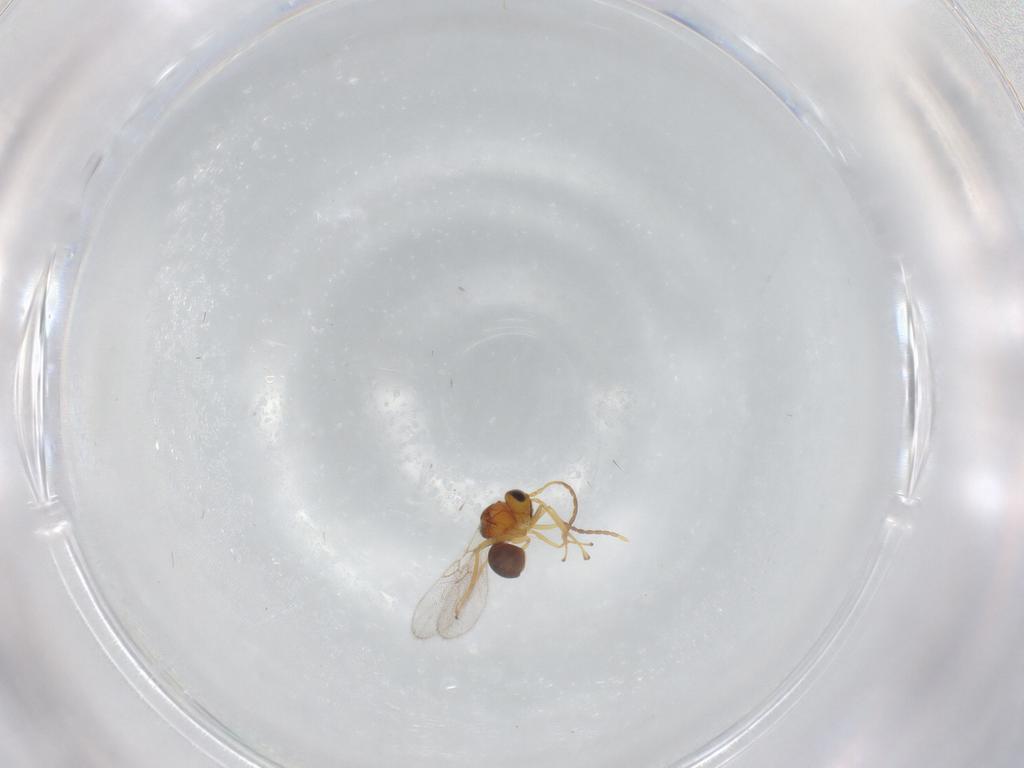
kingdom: Animalia
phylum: Arthropoda
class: Insecta
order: Hymenoptera
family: Figitidae
